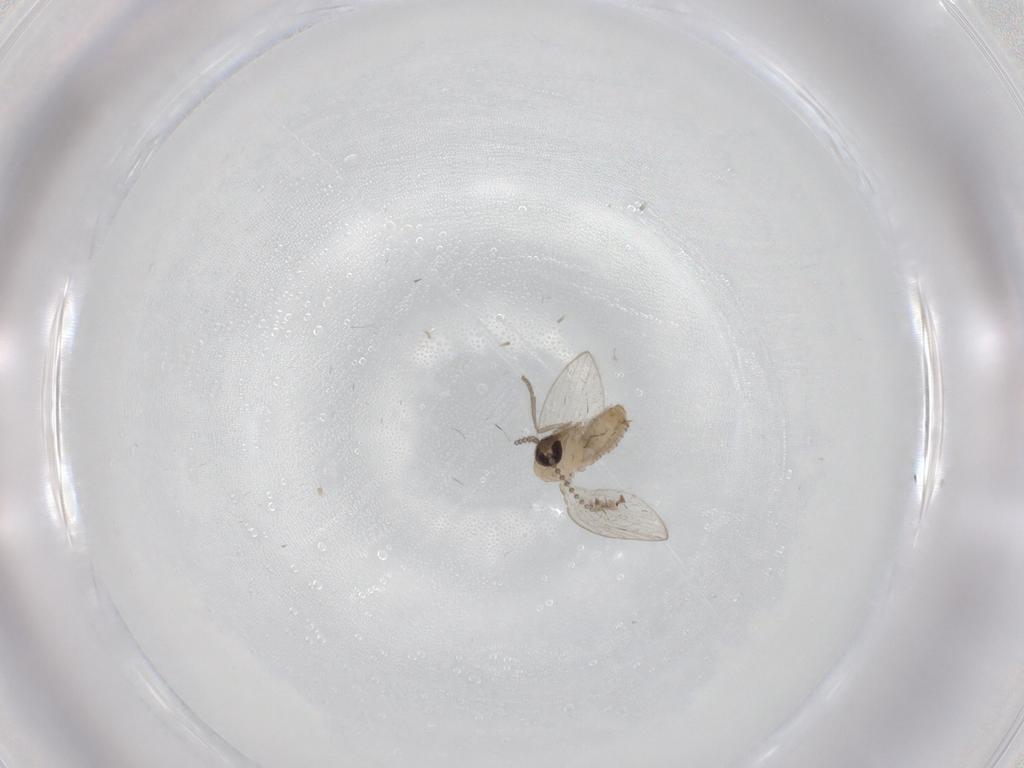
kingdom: Animalia
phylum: Arthropoda
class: Insecta
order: Diptera
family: Psychodidae
